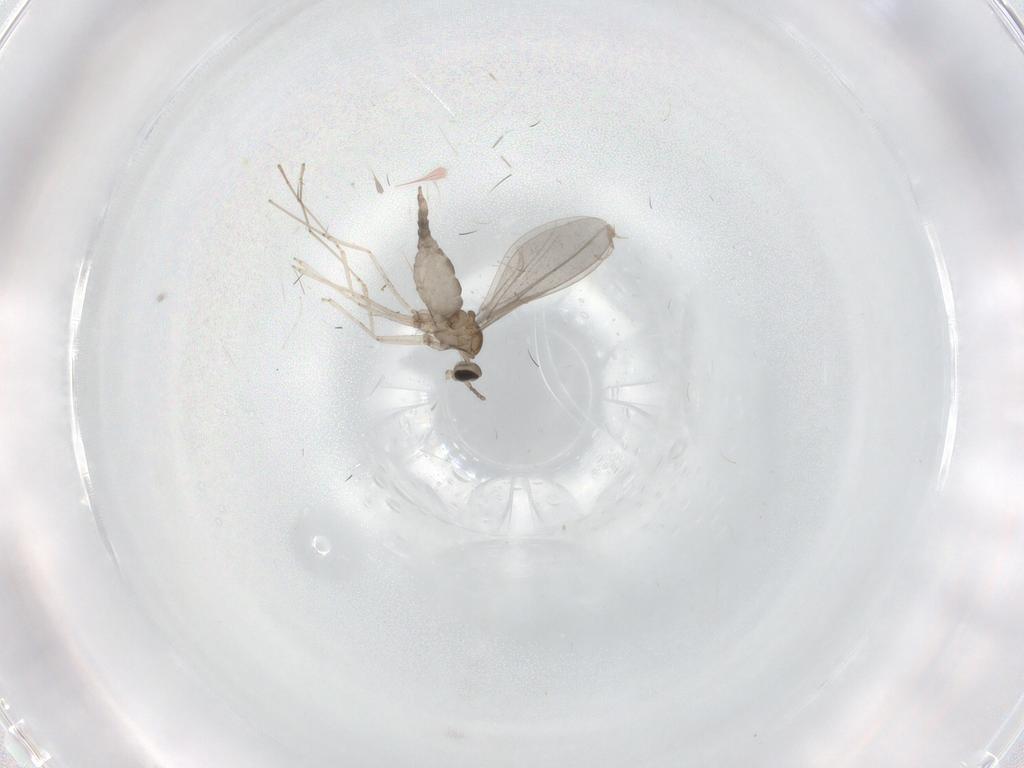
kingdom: Animalia
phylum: Arthropoda
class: Insecta
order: Diptera
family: Cecidomyiidae
